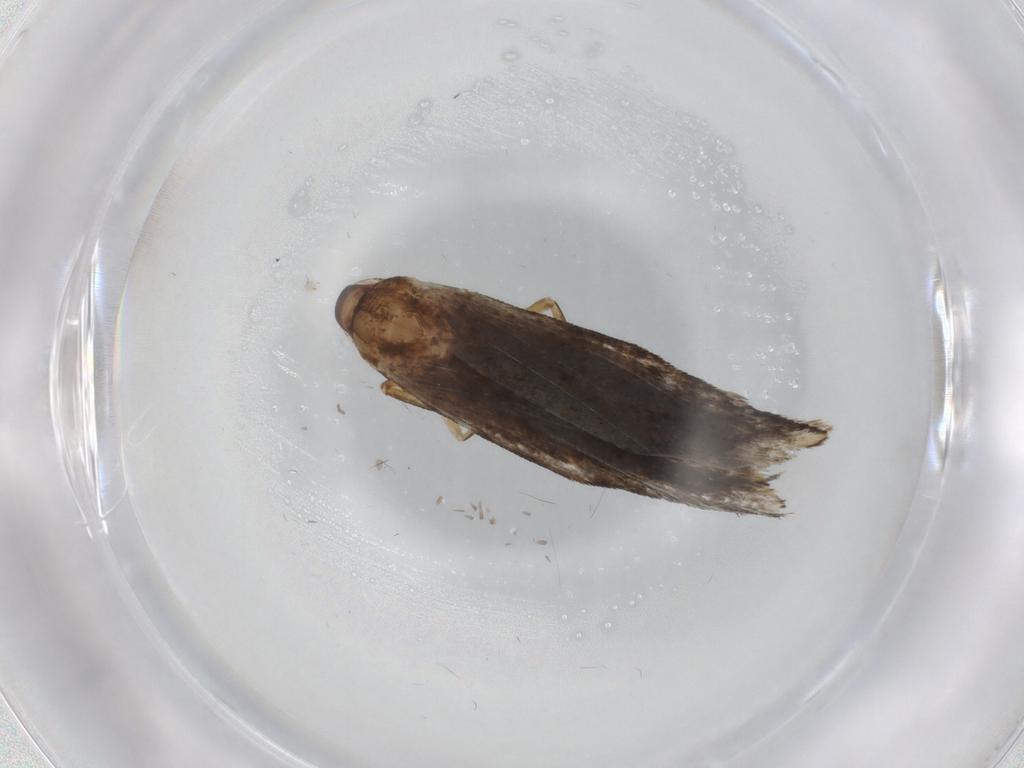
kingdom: Animalia
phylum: Arthropoda
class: Insecta
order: Lepidoptera
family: Gelechiidae
